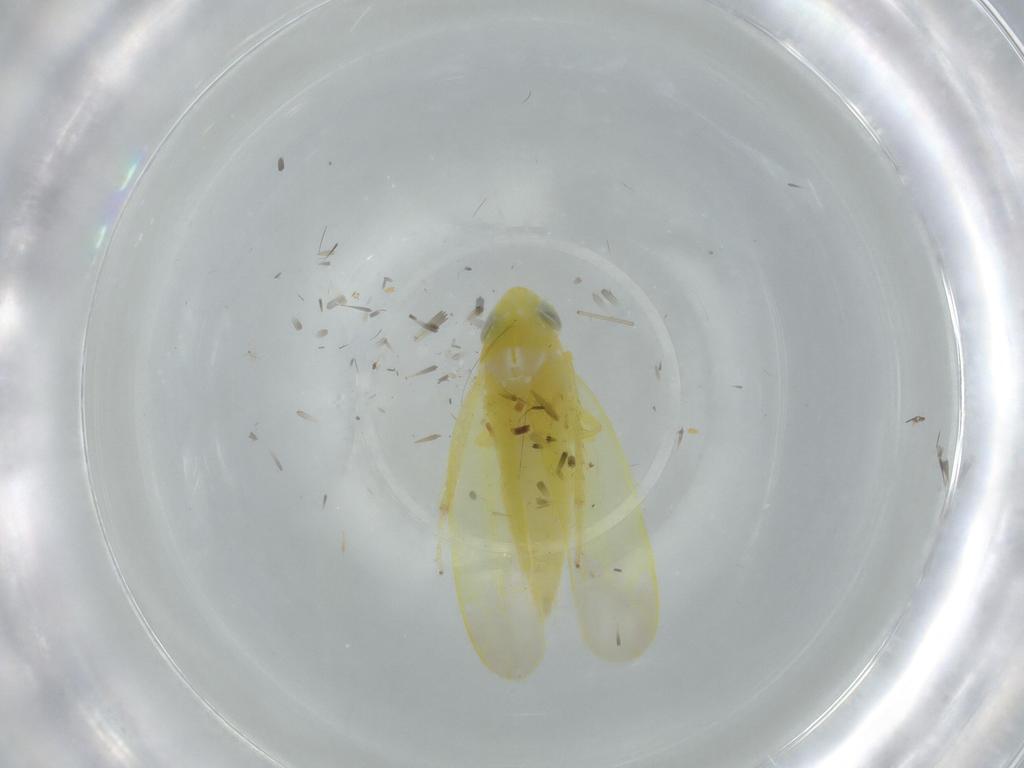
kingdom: Animalia
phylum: Arthropoda
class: Insecta
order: Hemiptera
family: Cicadellidae
